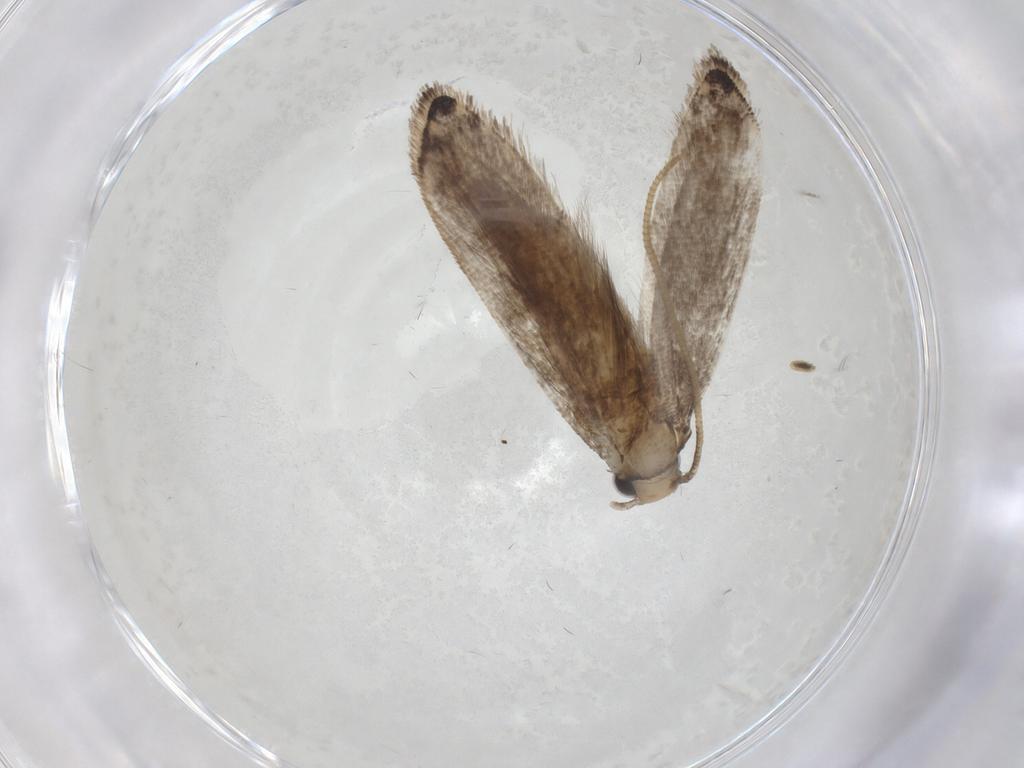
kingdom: Animalia
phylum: Arthropoda
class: Insecta
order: Lepidoptera
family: Tineidae
